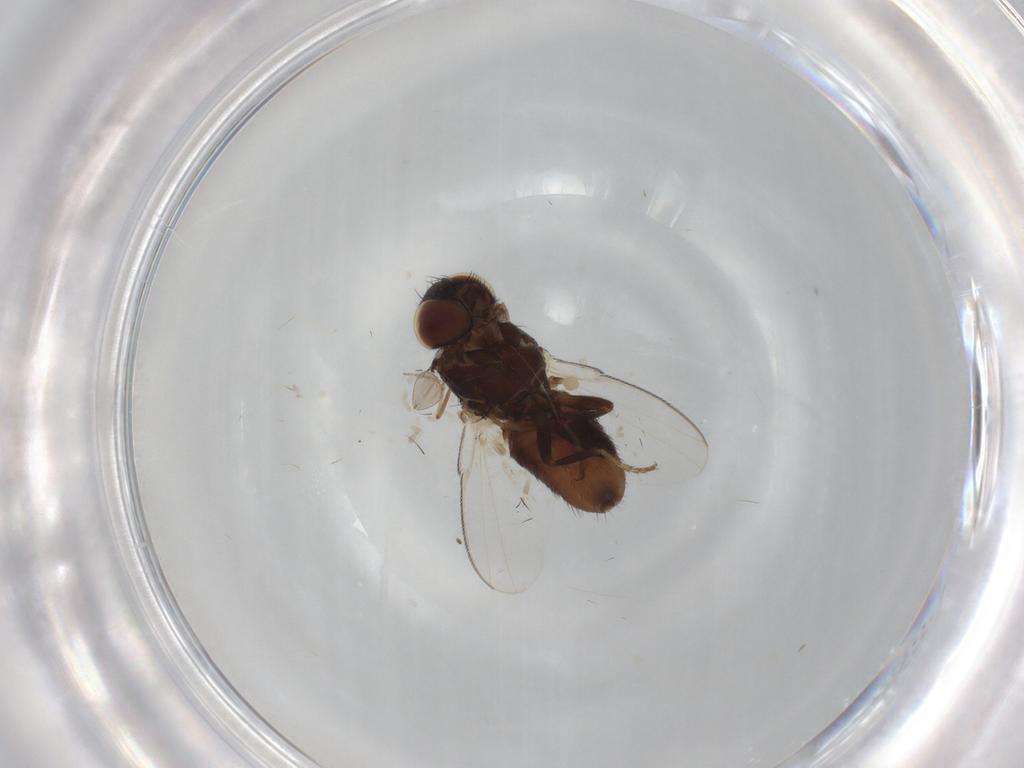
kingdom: Animalia
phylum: Arthropoda
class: Insecta
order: Diptera
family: Milichiidae
